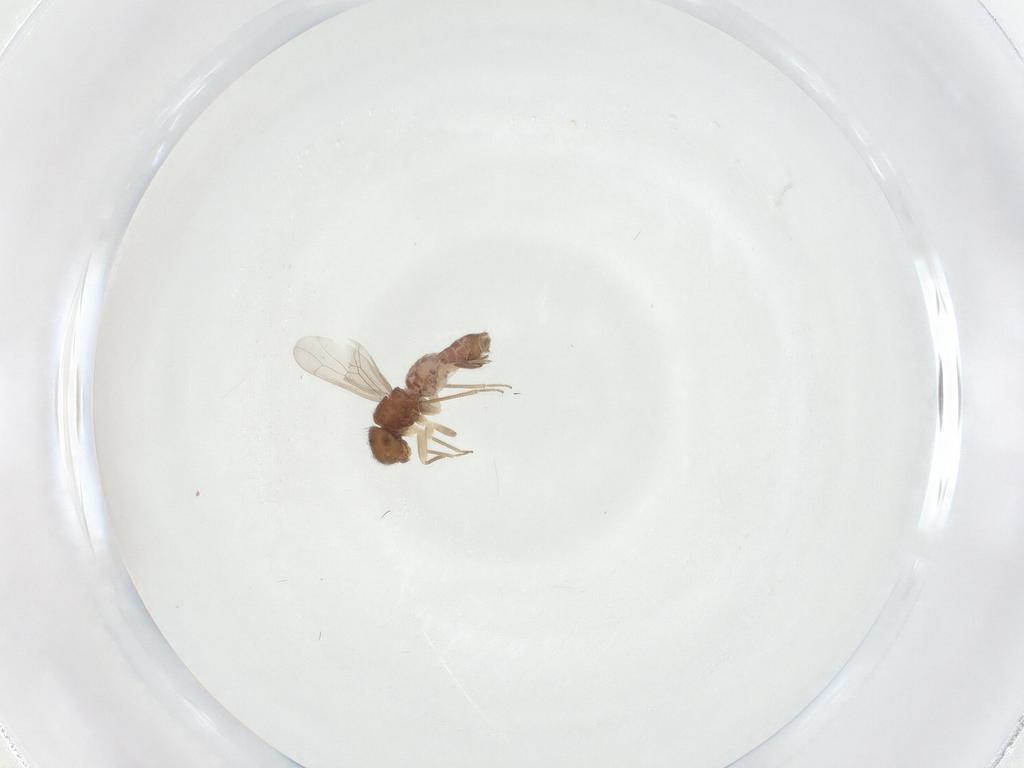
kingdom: Animalia
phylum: Arthropoda
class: Insecta
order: Psocodea
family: Ectopsocidae
